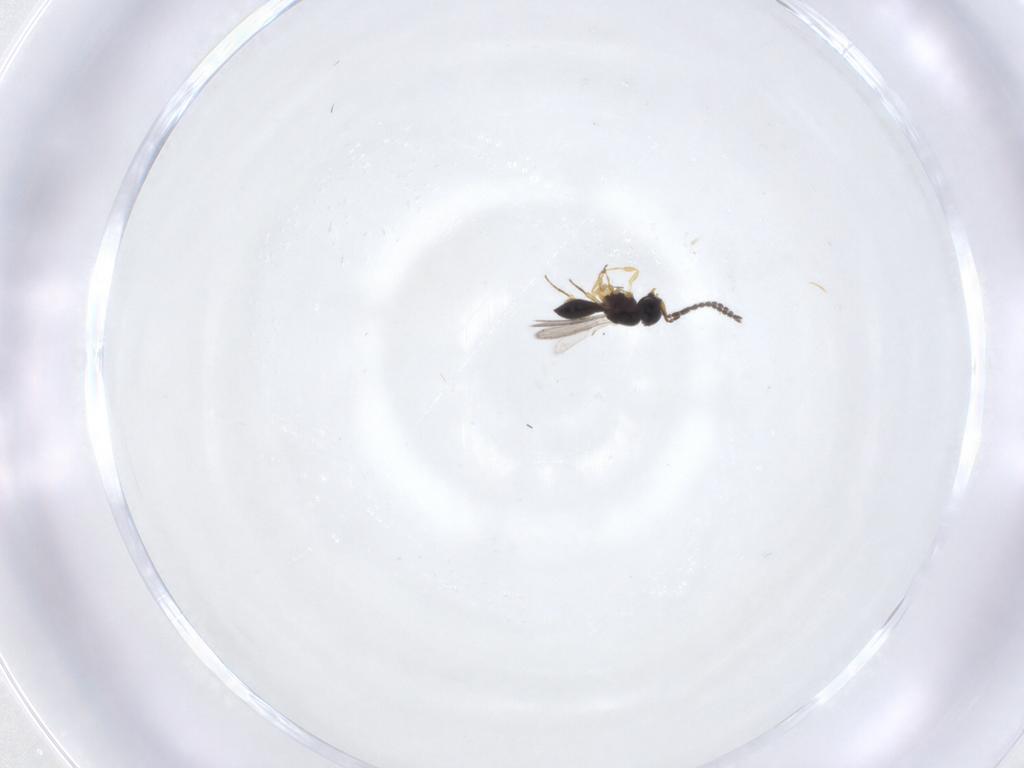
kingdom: Animalia
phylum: Arthropoda
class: Insecta
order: Hymenoptera
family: Scelionidae
